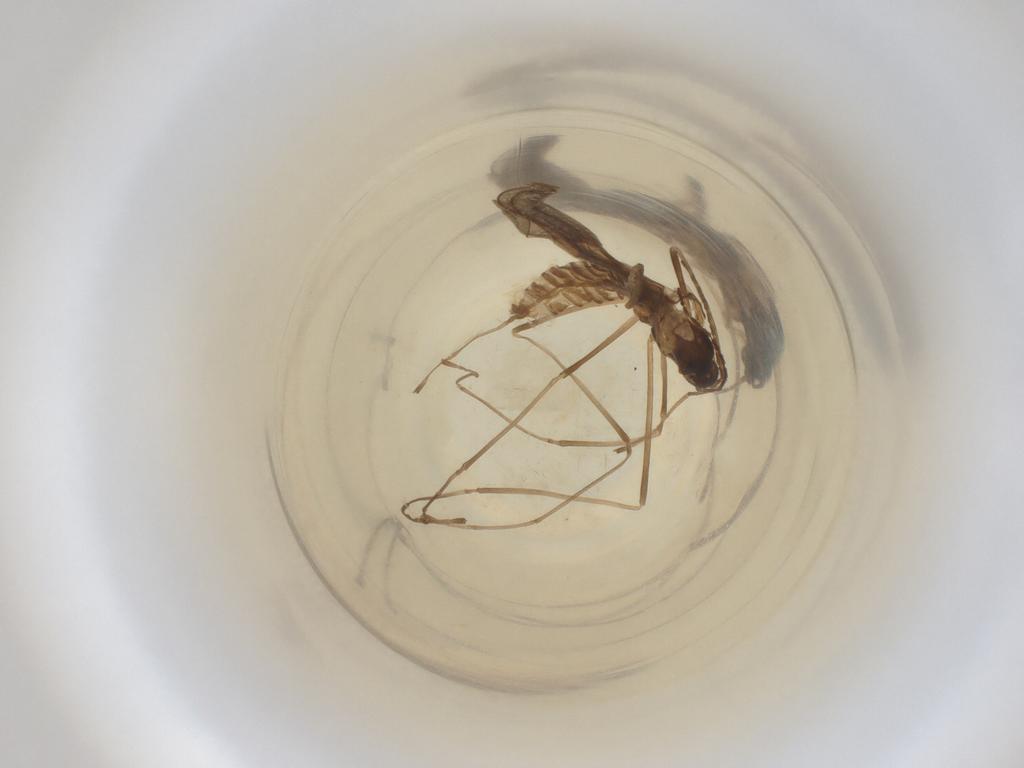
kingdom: Animalia
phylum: Arthropoda
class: Insecta
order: Diptera
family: Cecidomyiidae
